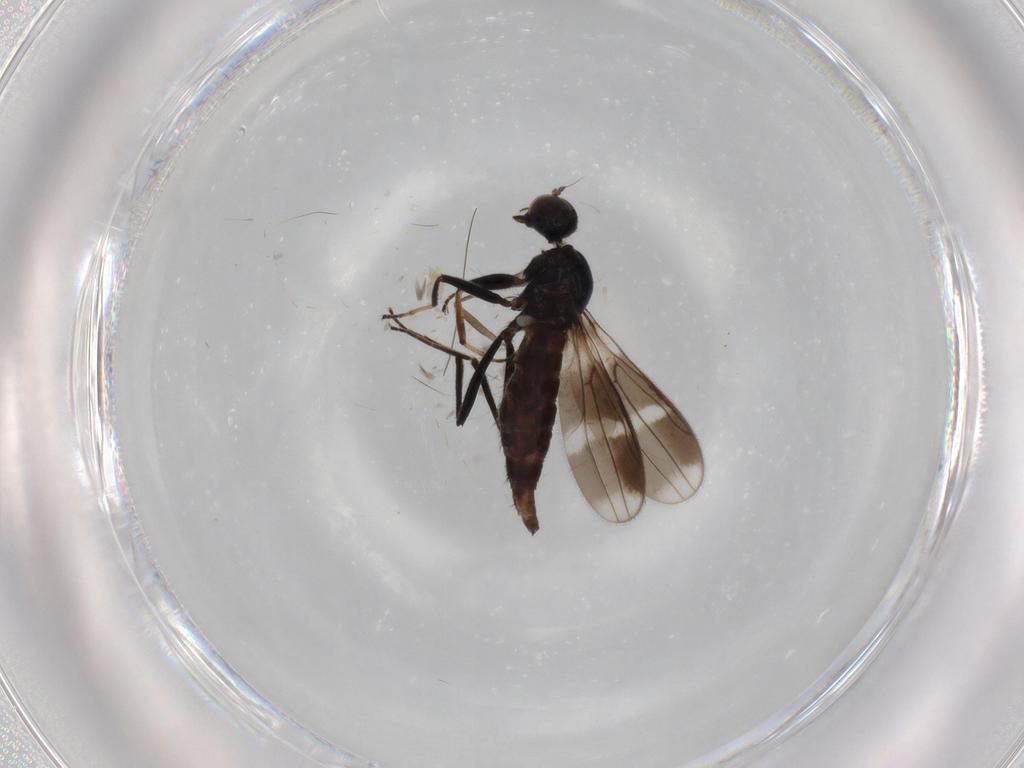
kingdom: Animalia
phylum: Arthropoda
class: Insecta
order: Diptera
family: Hybotidae
